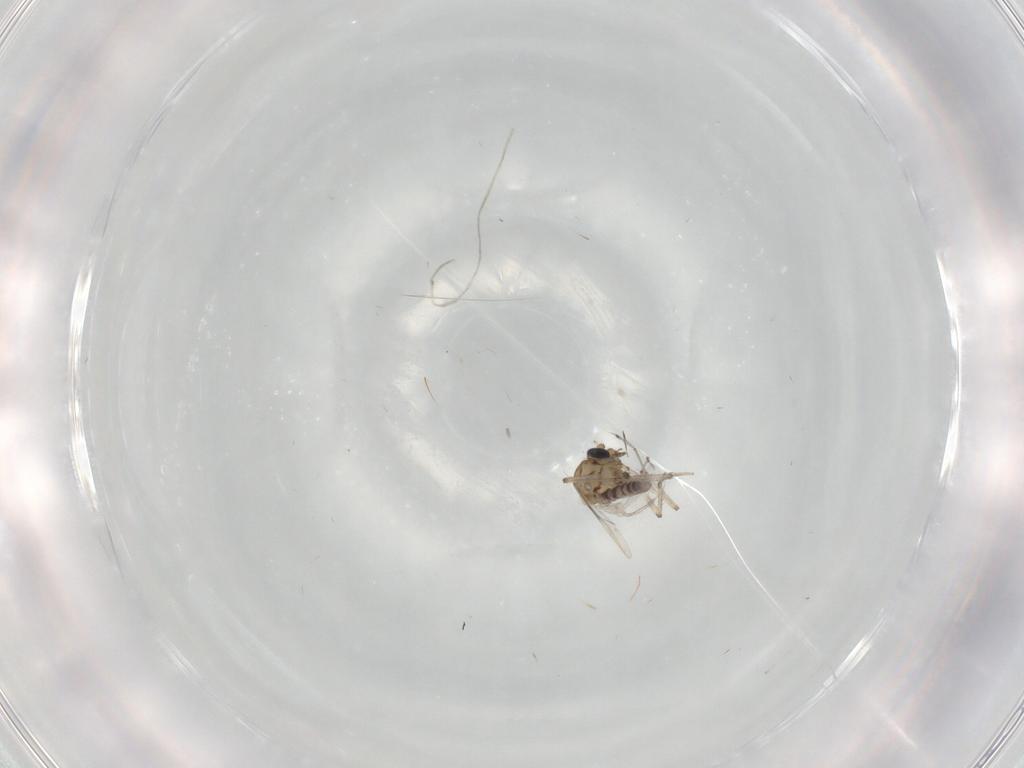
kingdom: Animalia
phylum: Arthropoda
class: Insecta
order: Diptera
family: Ceratopogonidae
